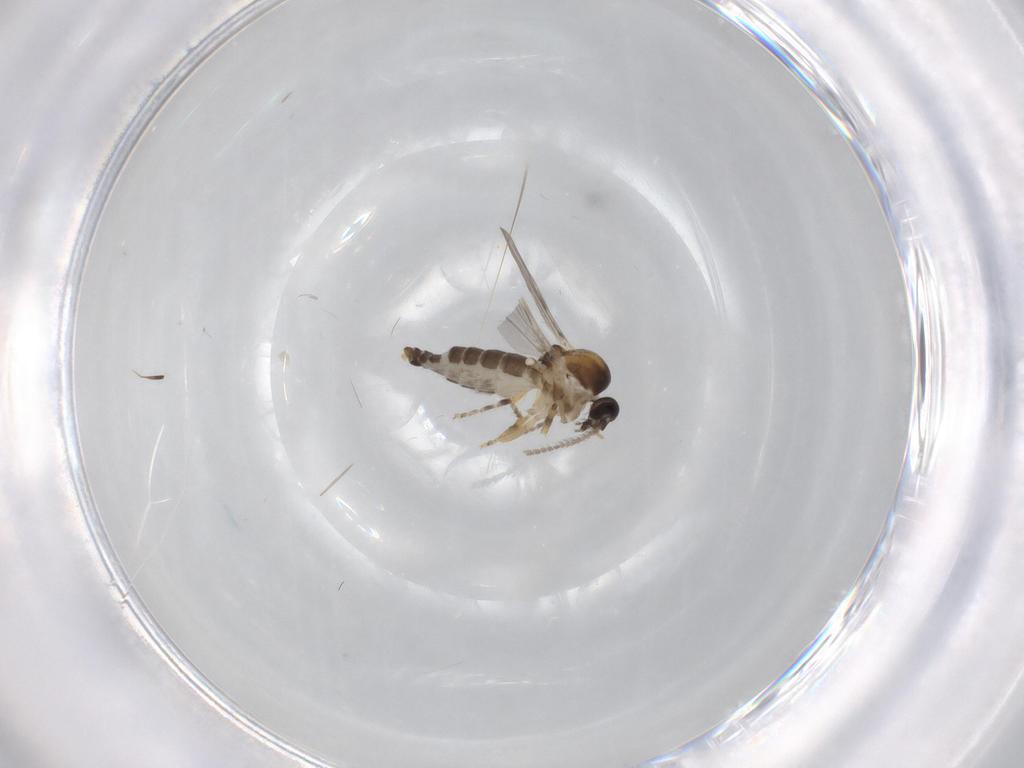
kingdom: Animalia
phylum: Arthropoda
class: Insecta
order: Diptera
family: Ceratopogonidae
